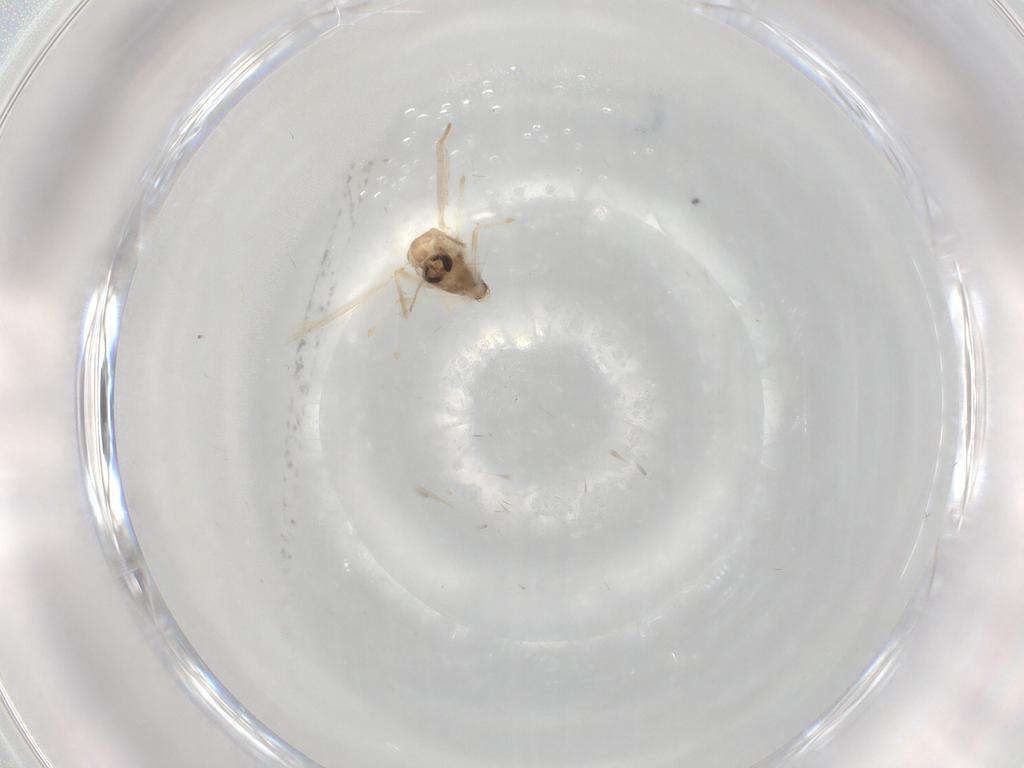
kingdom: Animalia
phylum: Arthropoda
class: Insecta
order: Diptera
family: Chironomidae
